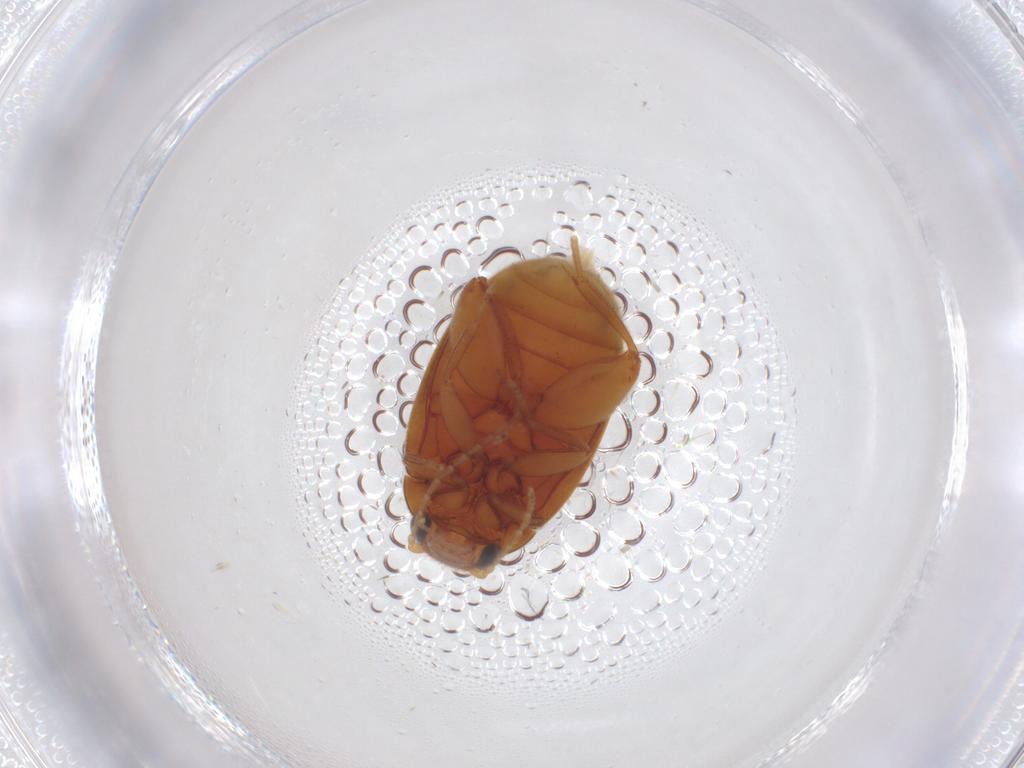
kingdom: Animalia
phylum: Arthropoda
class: Insecta
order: Coleoptera
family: Scirtidae
